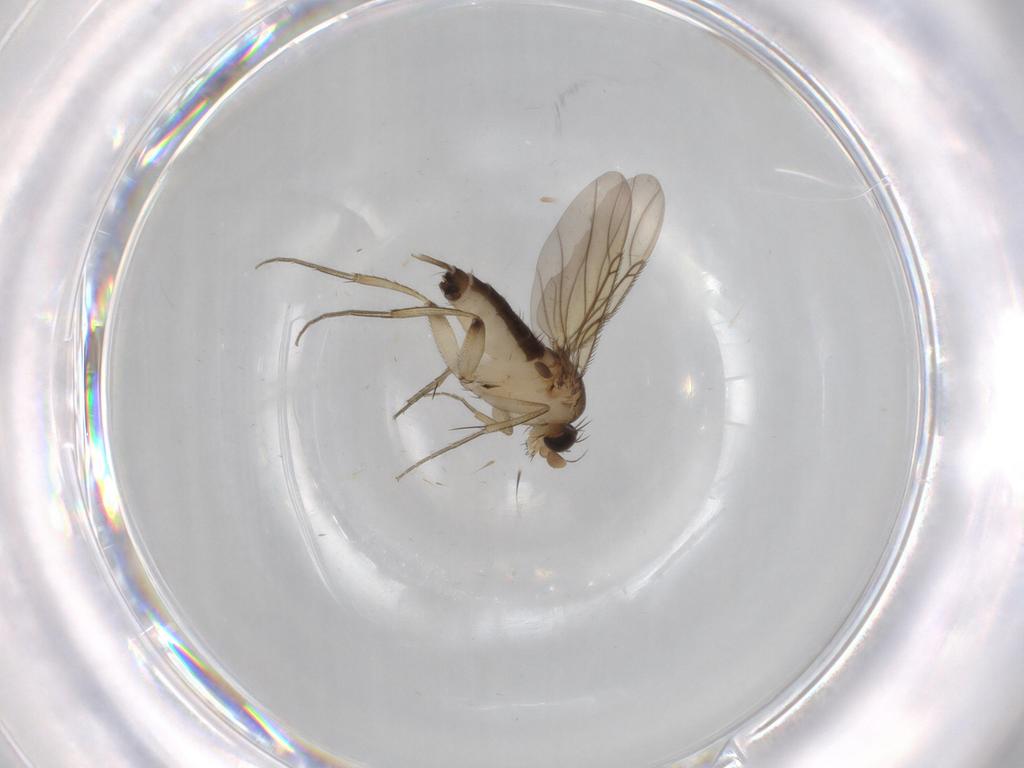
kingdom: Animalia
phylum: Arthropoda
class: Insecta
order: Diptera
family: Phoridae
